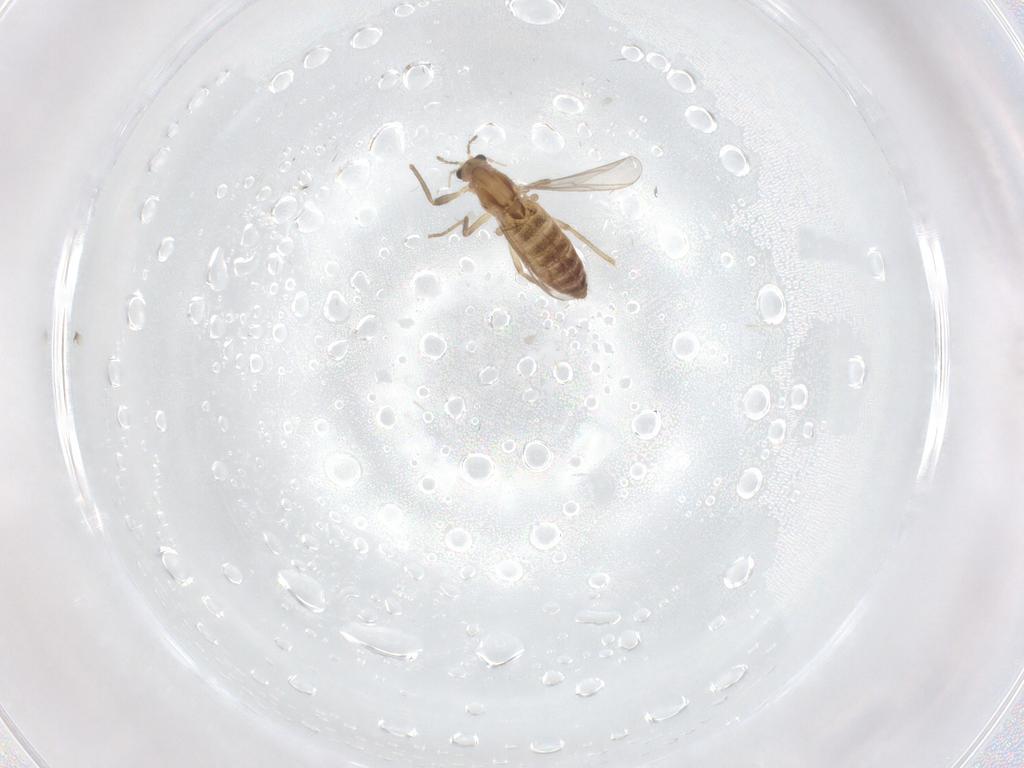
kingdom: Animalia
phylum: Arthropoda
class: Insecta
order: Diptera
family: Chironomidae
